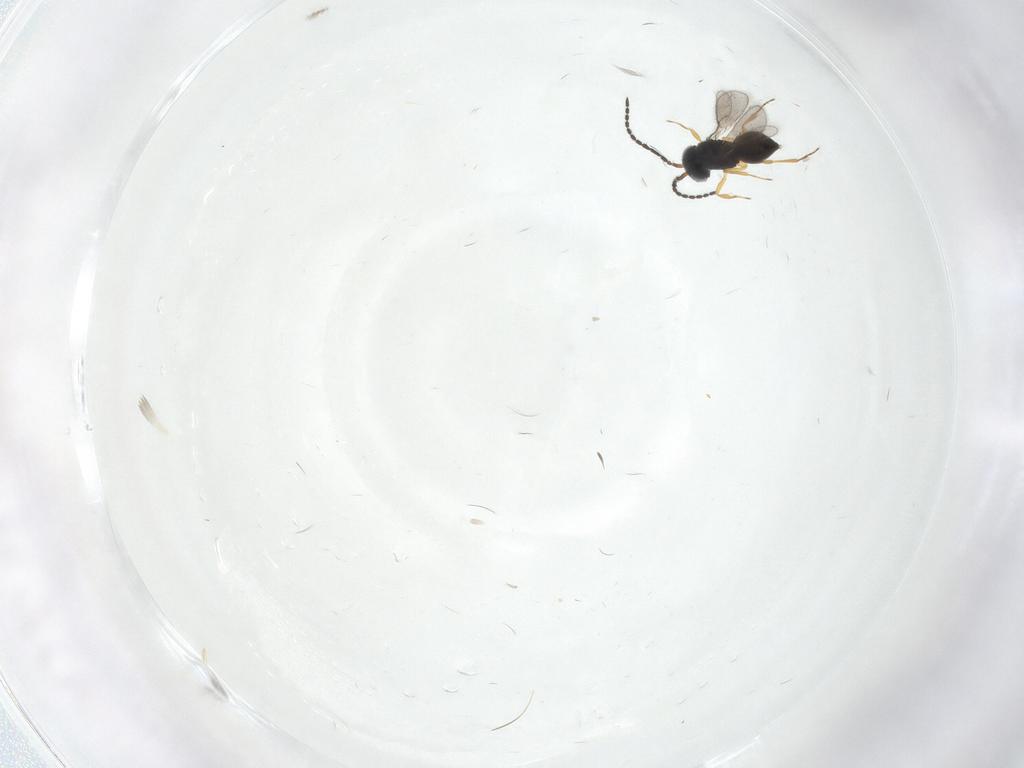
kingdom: Animalia
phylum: Arthropoda
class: Insecta
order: Hymenoptera
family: Scelionidae
